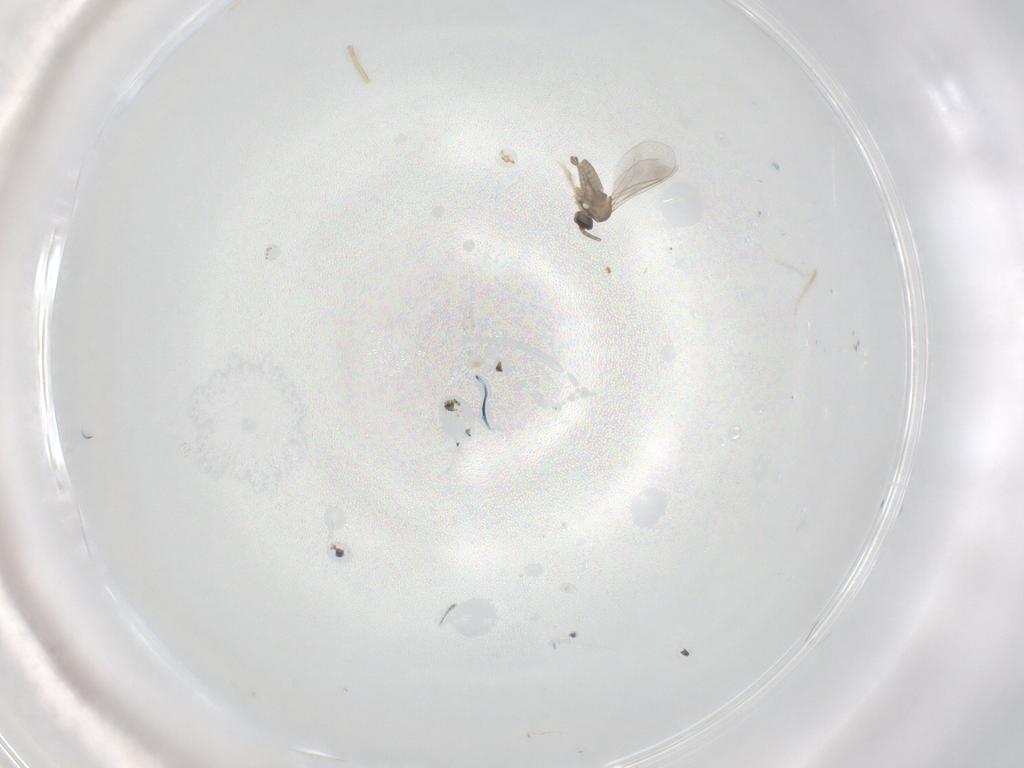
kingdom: Animalia
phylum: Arthropoda
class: Insecta
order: Diptera
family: Cecidomyiidae
